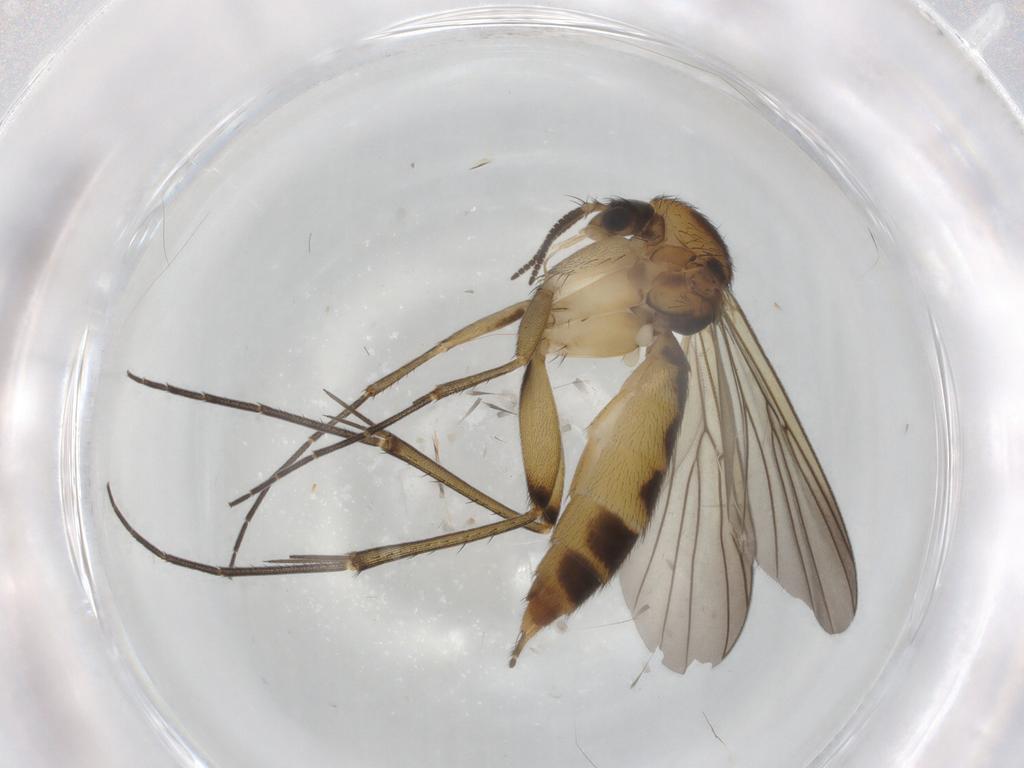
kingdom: Animalia
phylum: Arthropoda
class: Insecta
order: Diptera
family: Mycetophilidae
